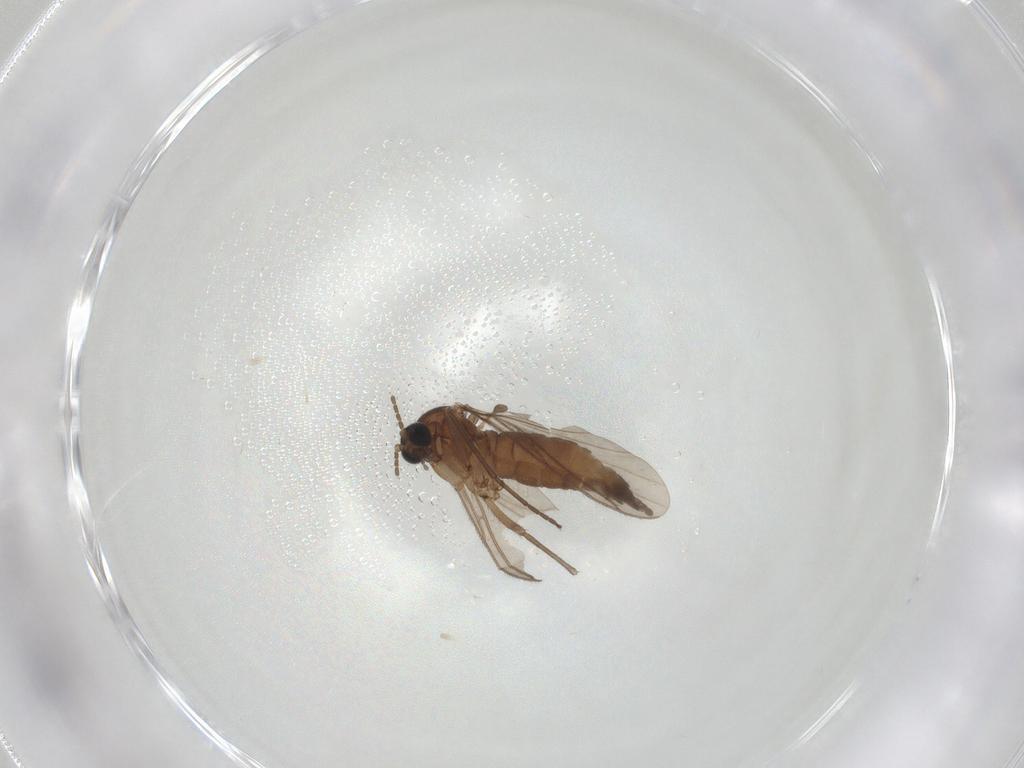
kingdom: Animalia
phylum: Arthropoda
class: Insecta
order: Diptera
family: Sciaridae
